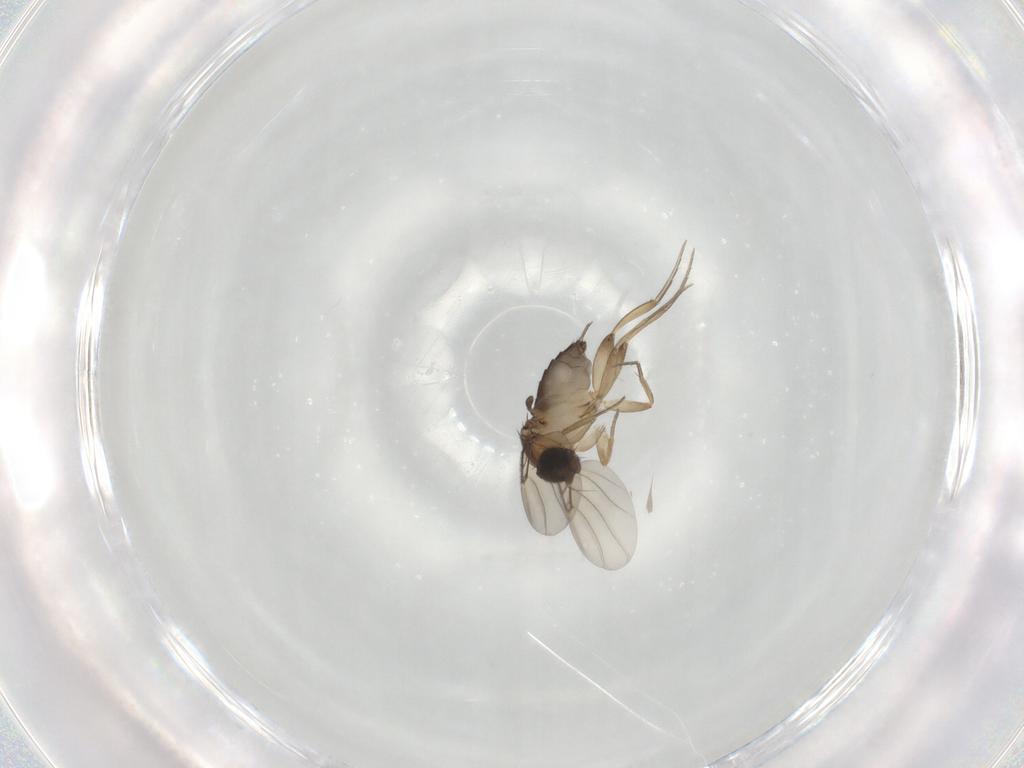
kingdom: Animalia
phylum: Arthropoda
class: Insecta
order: Diptera
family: Phoridae
